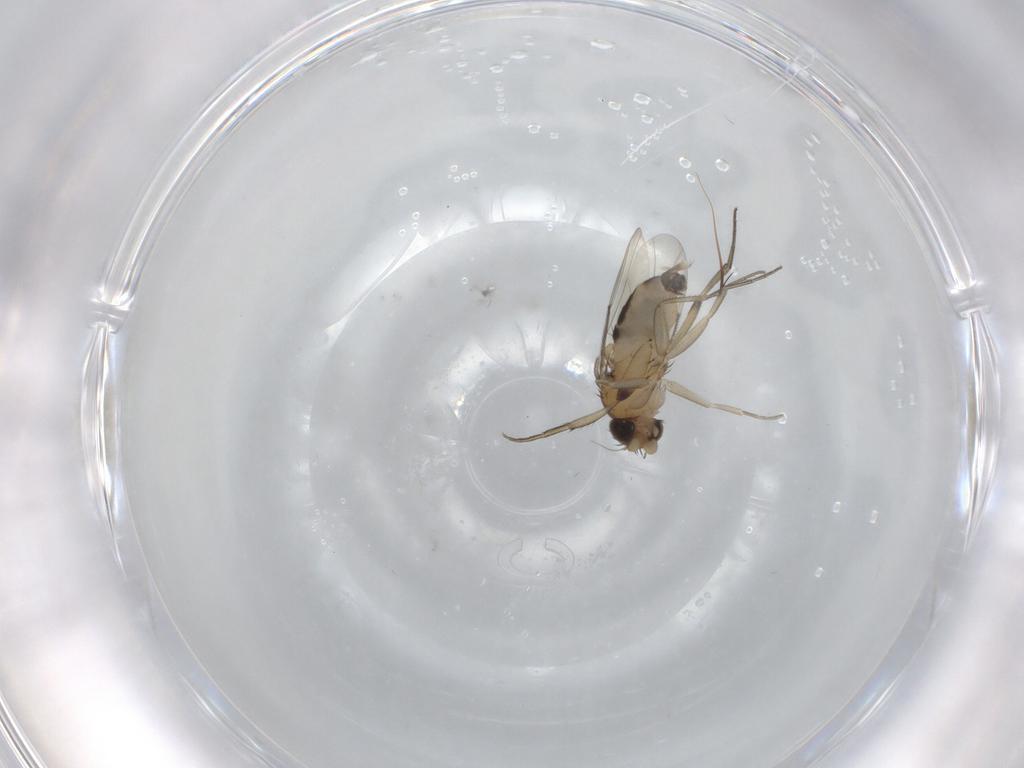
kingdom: Animalia
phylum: Arthropoda
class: Insecta
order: Diptera
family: Phoridae
